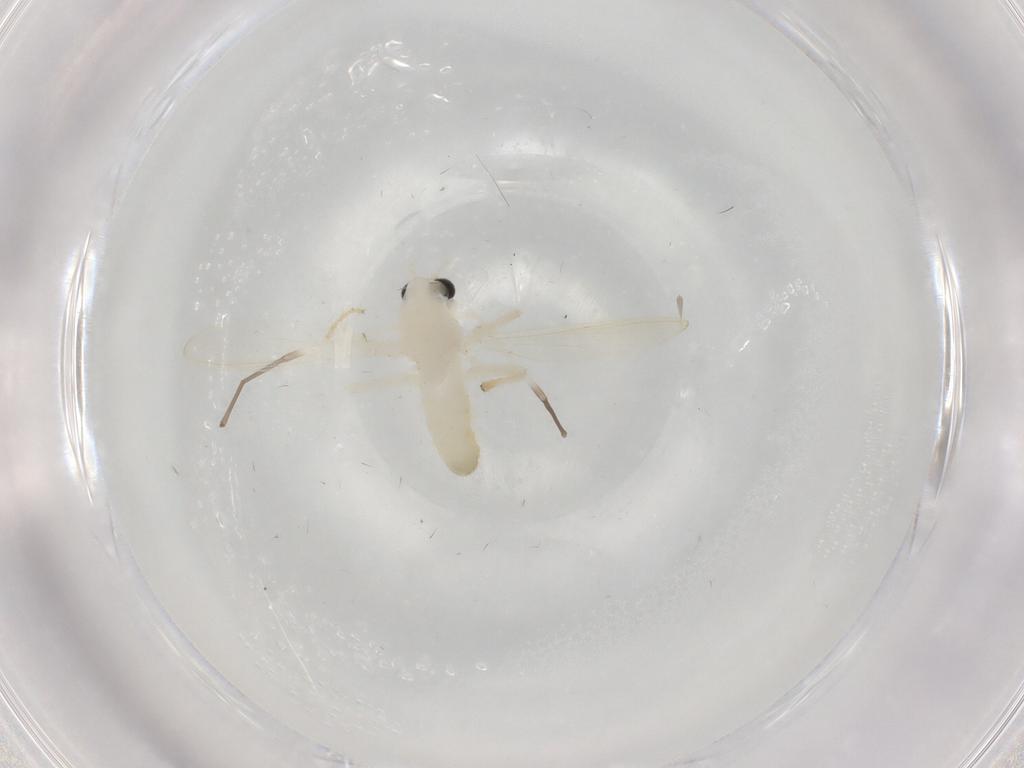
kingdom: Animalia
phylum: Arthropoda
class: Insecta
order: Diptera
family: Chironomidae
